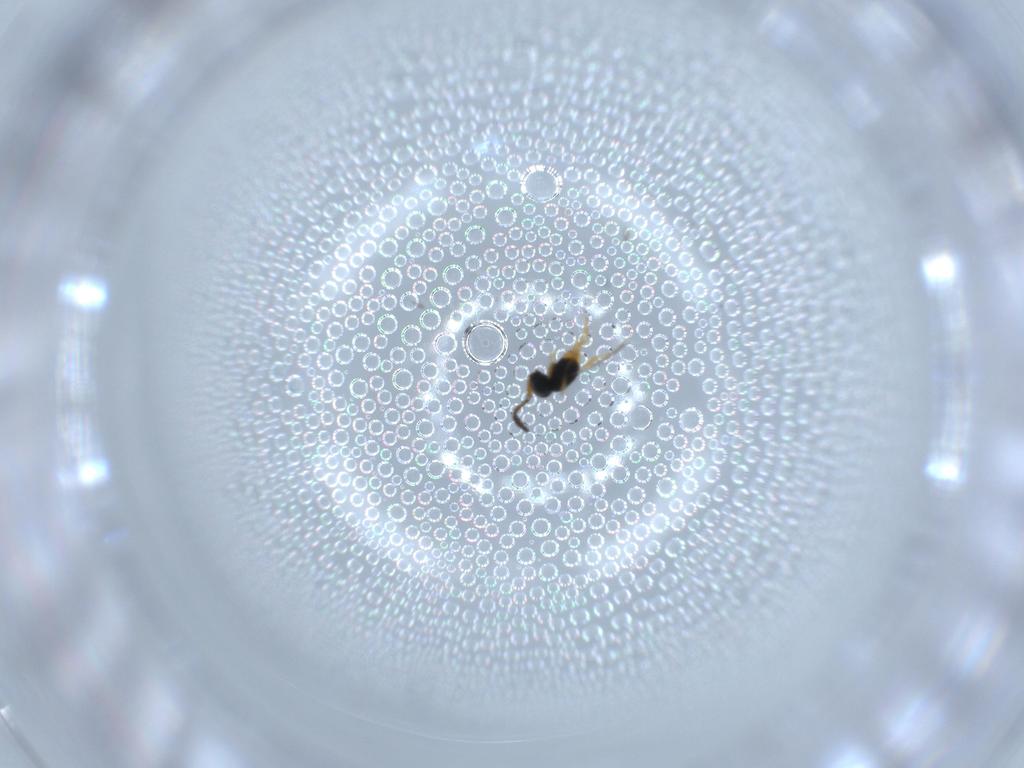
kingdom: Animalia
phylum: Arthropoda
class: Insecta
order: Hymenoptera
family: Scelionidae
